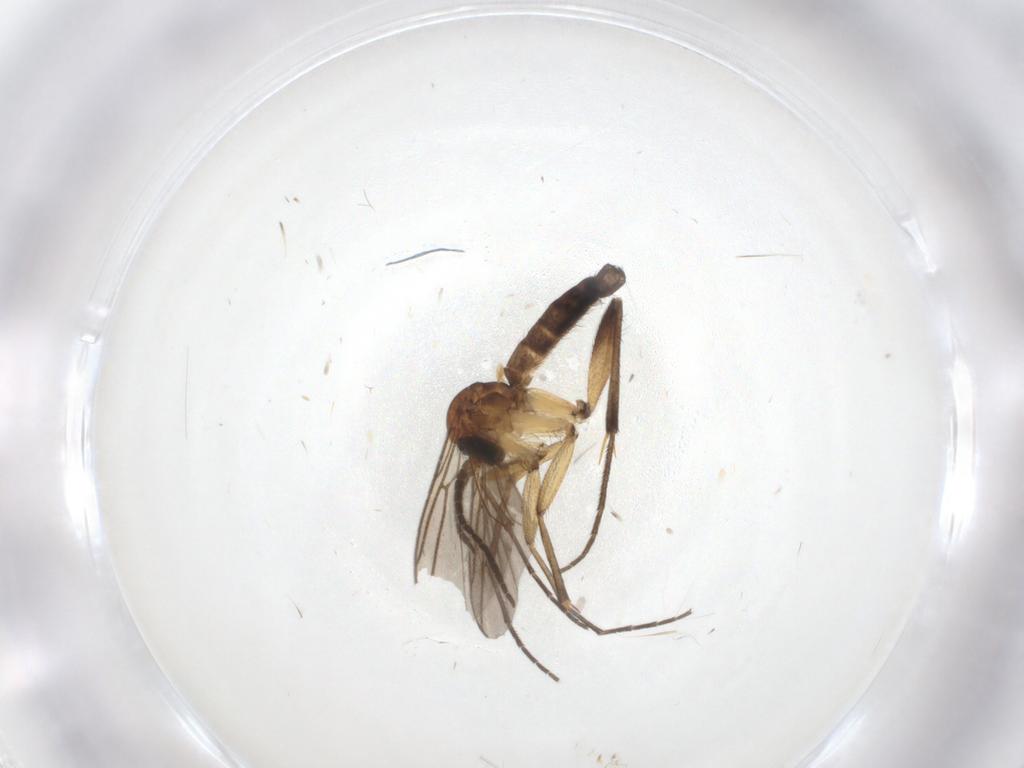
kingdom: Animalia
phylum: Arthropoda
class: Insecta
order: Diptera
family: Mycetophilidae
